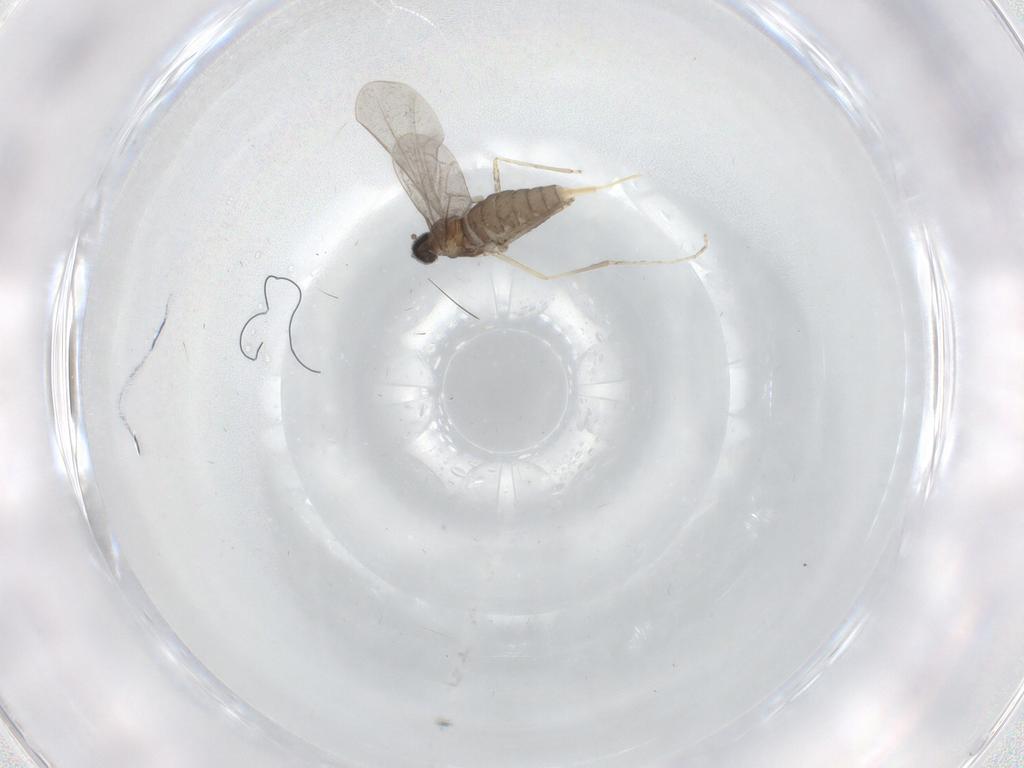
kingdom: Animalia
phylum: Arthropoda
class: Insecta
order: Diptera
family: Cecidomyiidae
